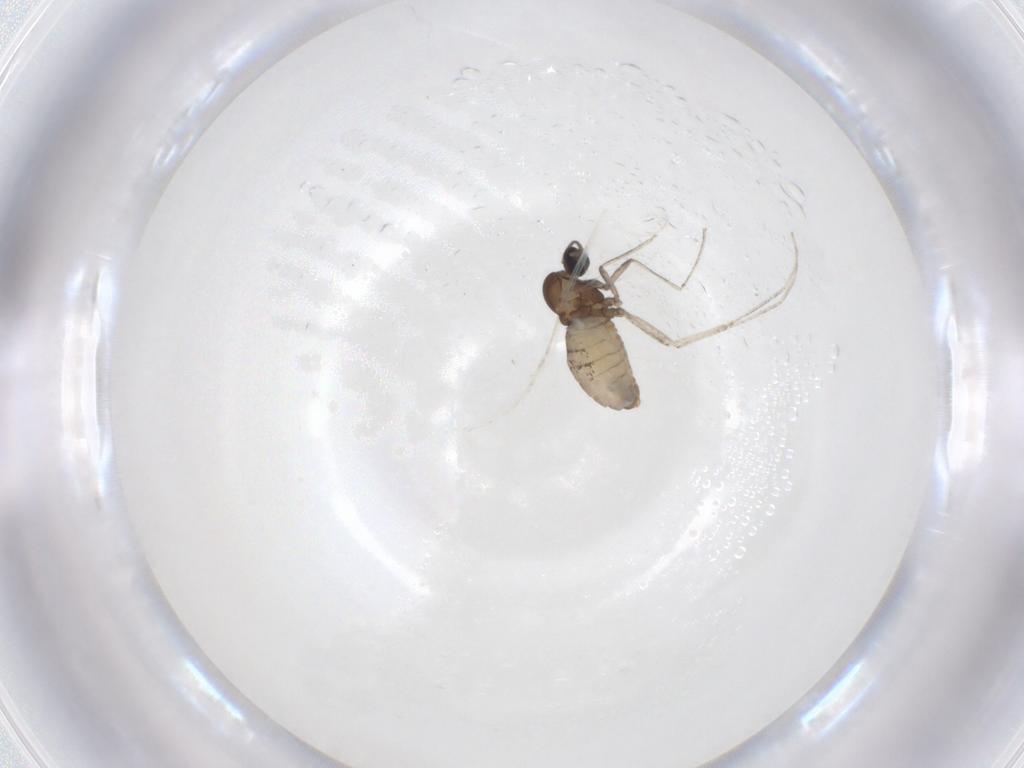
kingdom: Animalia
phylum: Arthropoda
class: Insecta
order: Diptera
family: Cecidomyiidae
